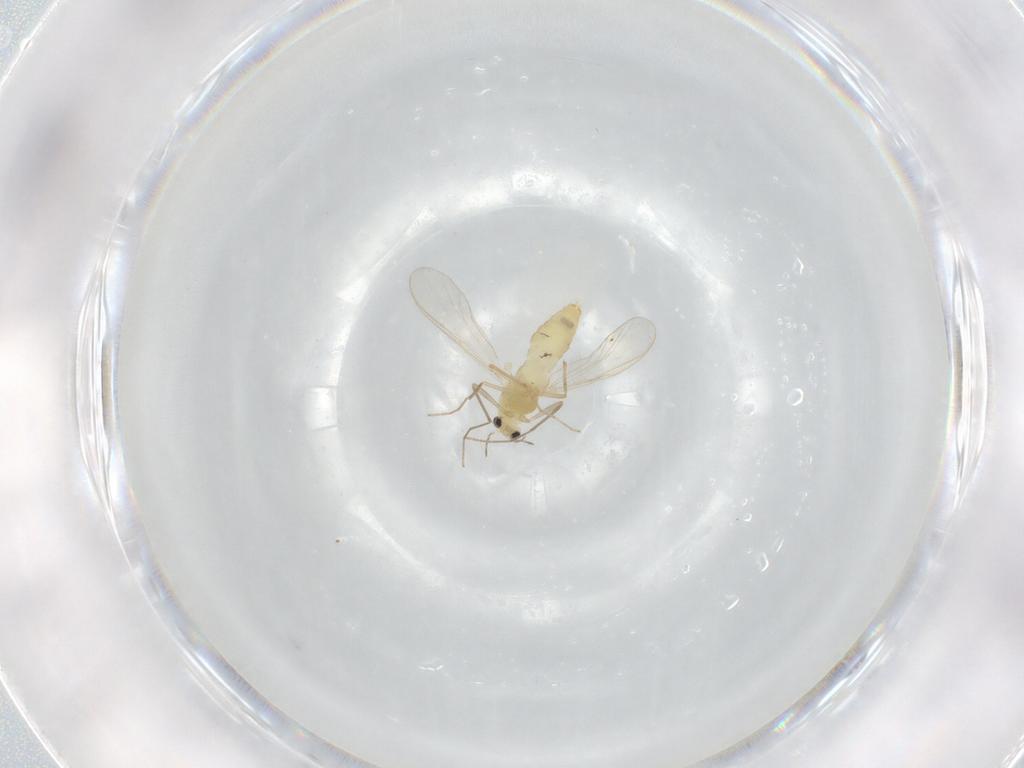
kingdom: Animalia
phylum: Arthropoda
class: Insecta
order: Diptera
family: Chironomidae
